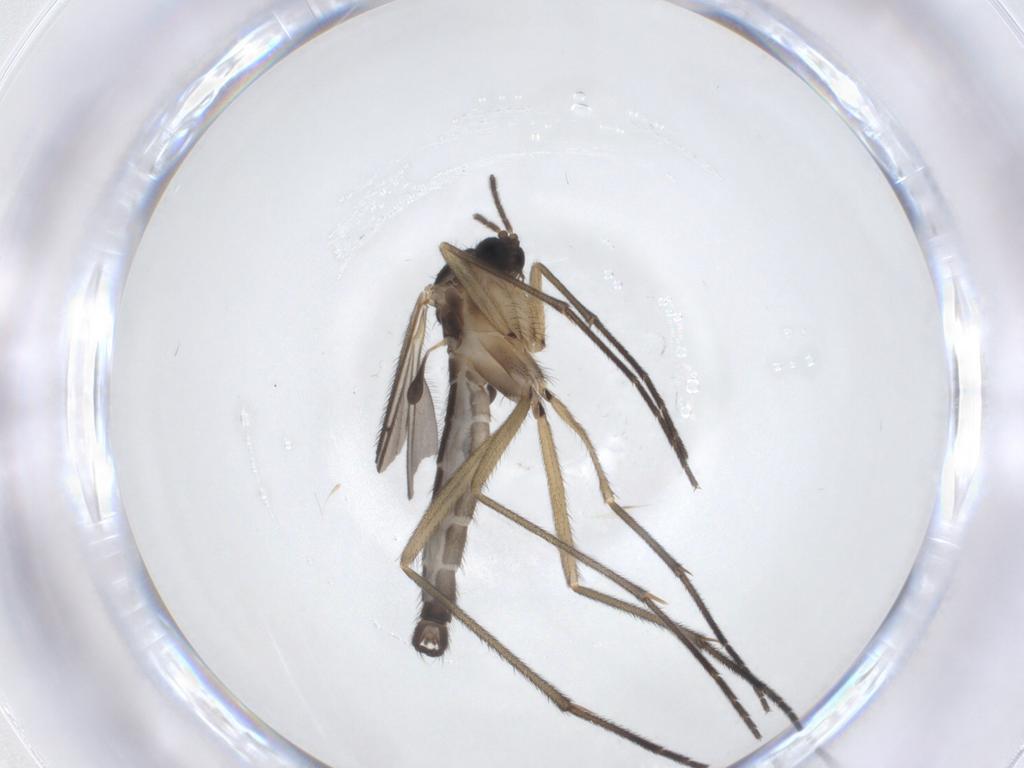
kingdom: Animalia
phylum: Arthropoda
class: Insecta
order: Diptera
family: Sciaridae
